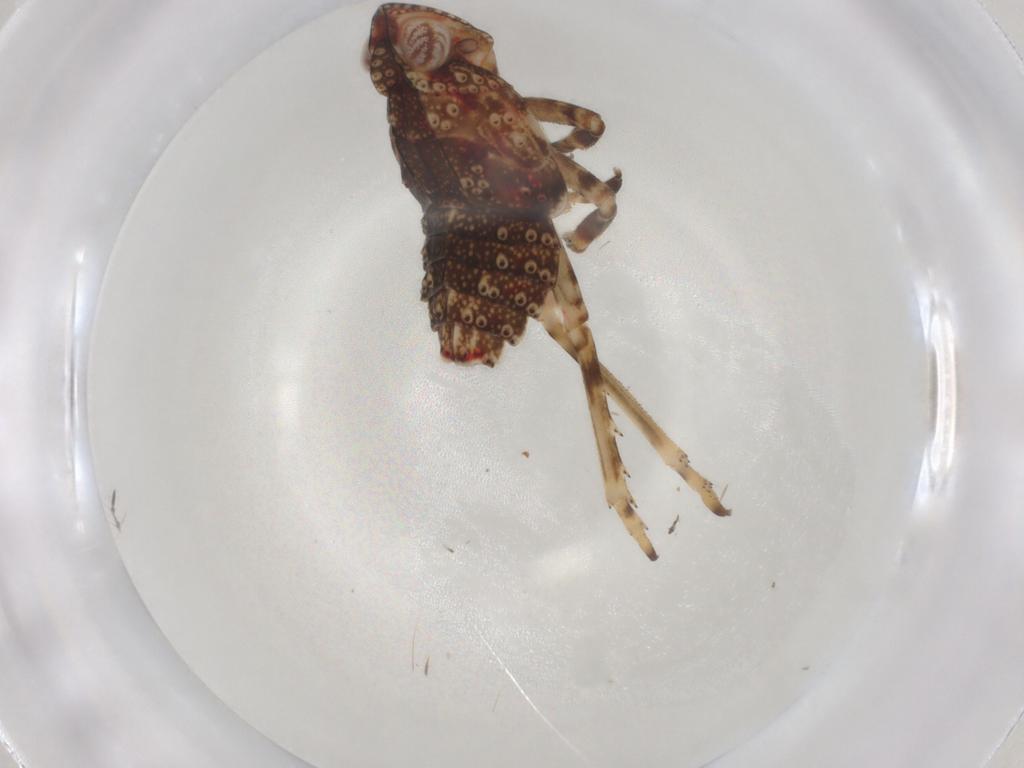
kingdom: Animalia
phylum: Arthropoda
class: Insecta
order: Hemiptera
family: Tropiduchidae
